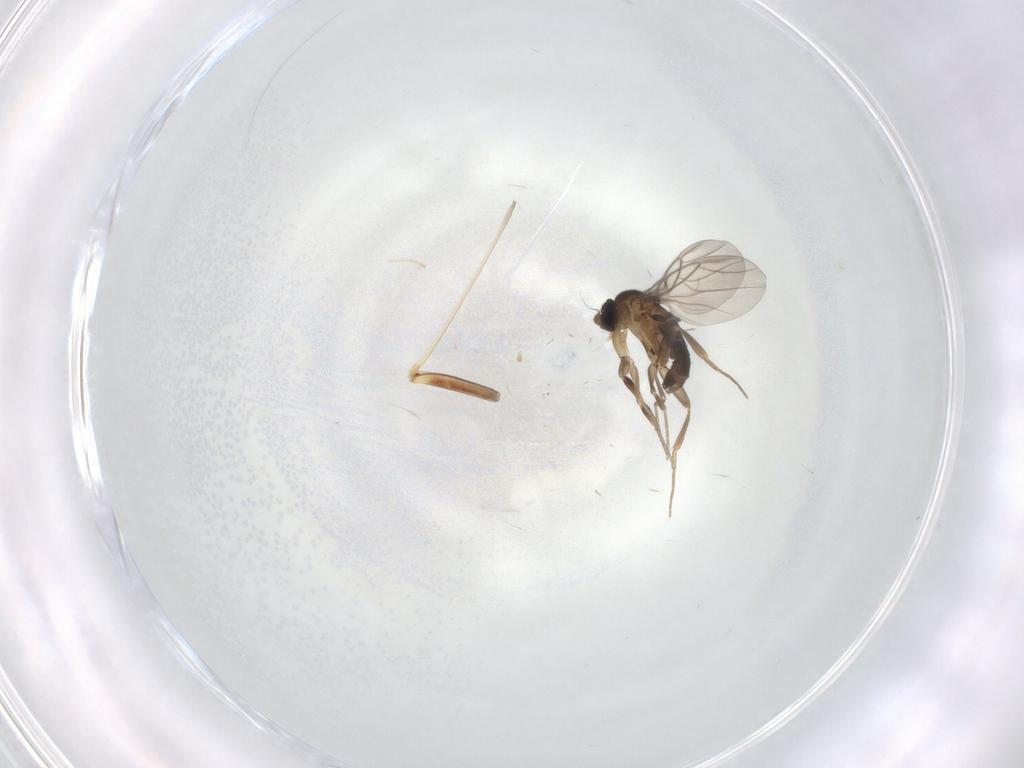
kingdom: Animalia
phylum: Arthropoda
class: Insecta
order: Diptera
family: Phoridae
